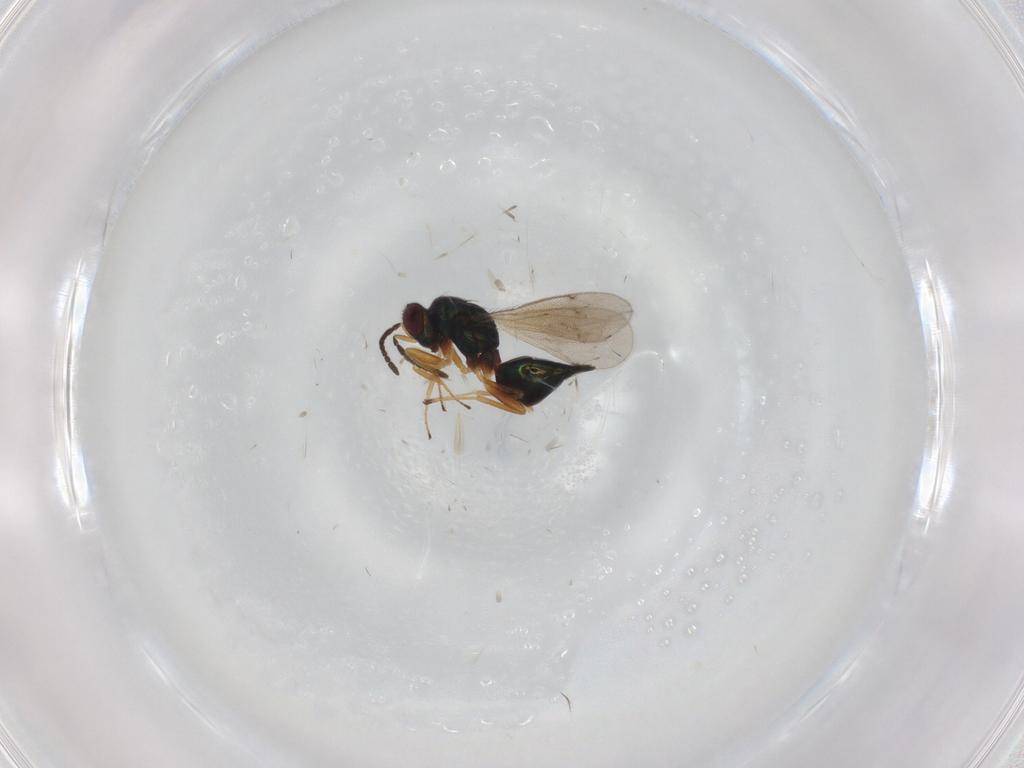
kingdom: Animalia
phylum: Arthropoda
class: Insecta
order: Hymenoptera
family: Tetracampidae
